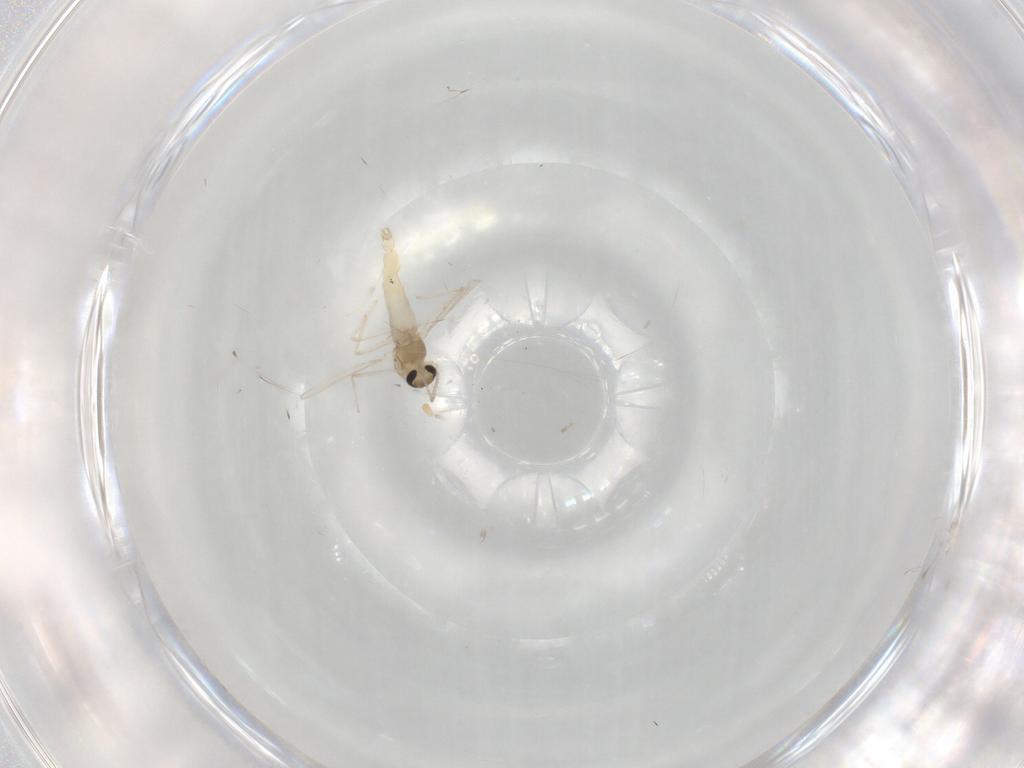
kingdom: Animalia
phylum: Arthropoda
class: Insecta
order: Diptera
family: Chironomidae
